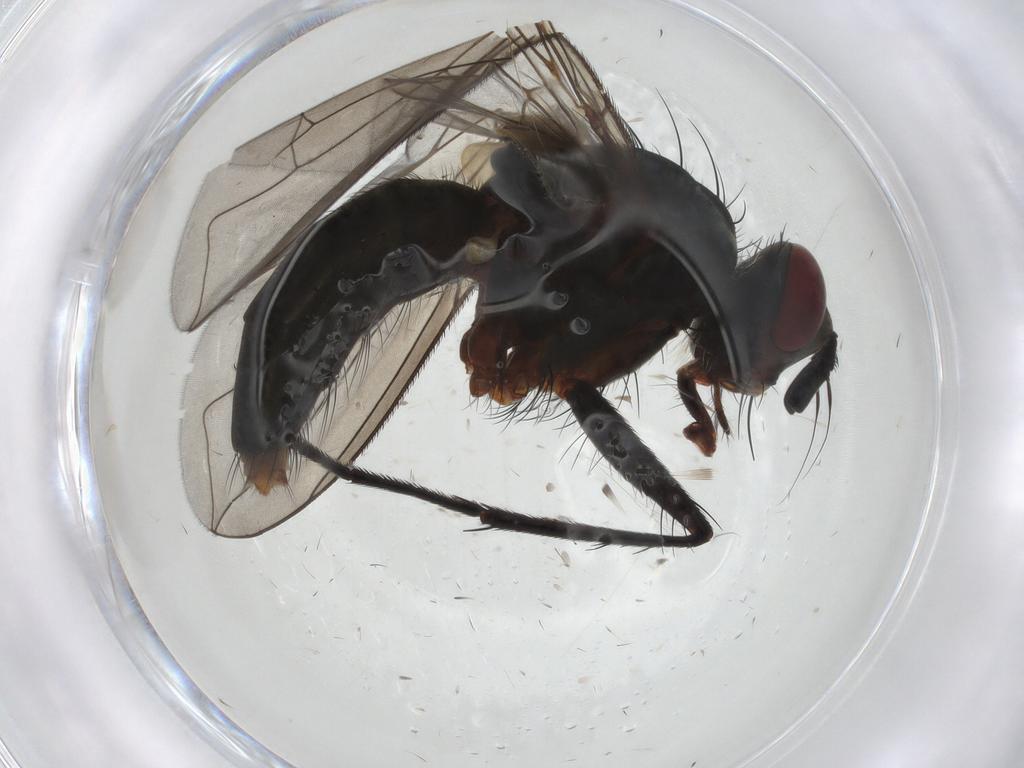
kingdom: Animalia
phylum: Arthropoda
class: Insecta
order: Diptera
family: Tachinidae
